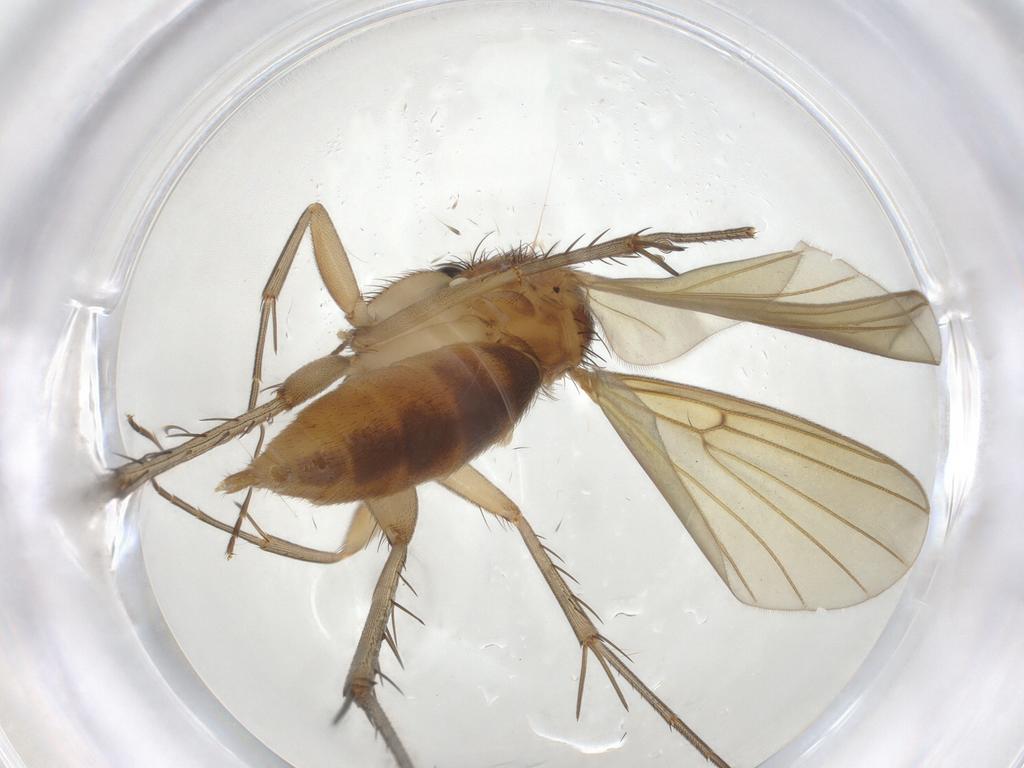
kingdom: Animalia
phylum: Arthropoda
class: Insecta
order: Diptera
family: Mycetophilidae
